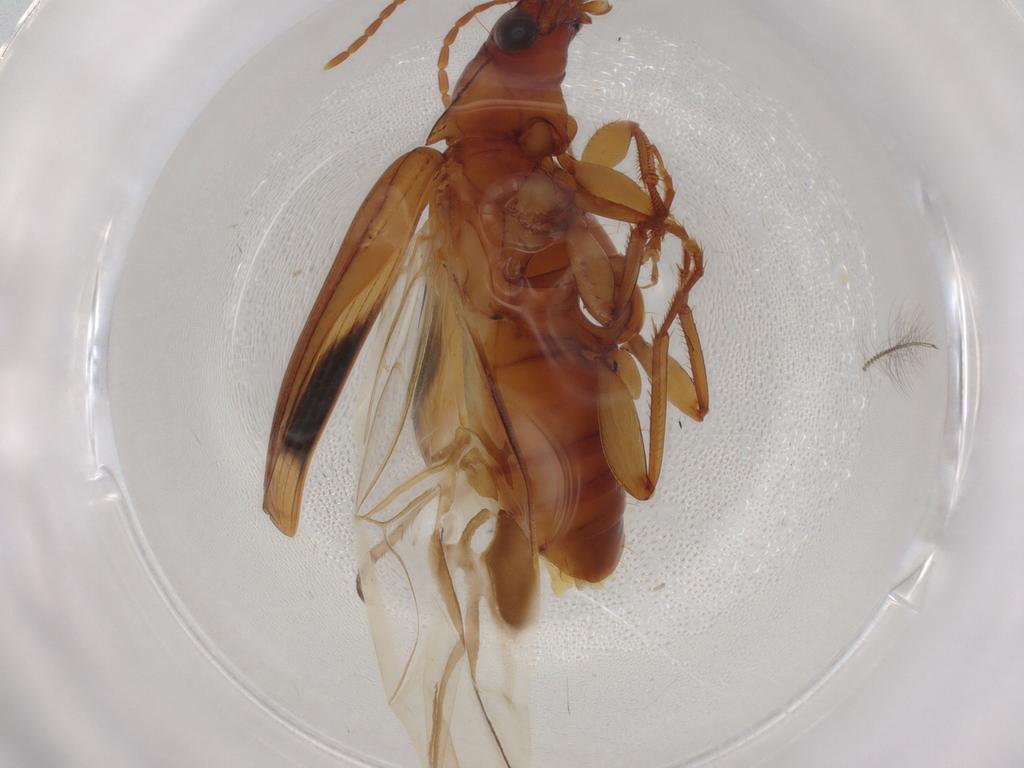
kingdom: Animalia
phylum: Arthropoda
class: Insecta
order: Coleoptera
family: Carabidae
